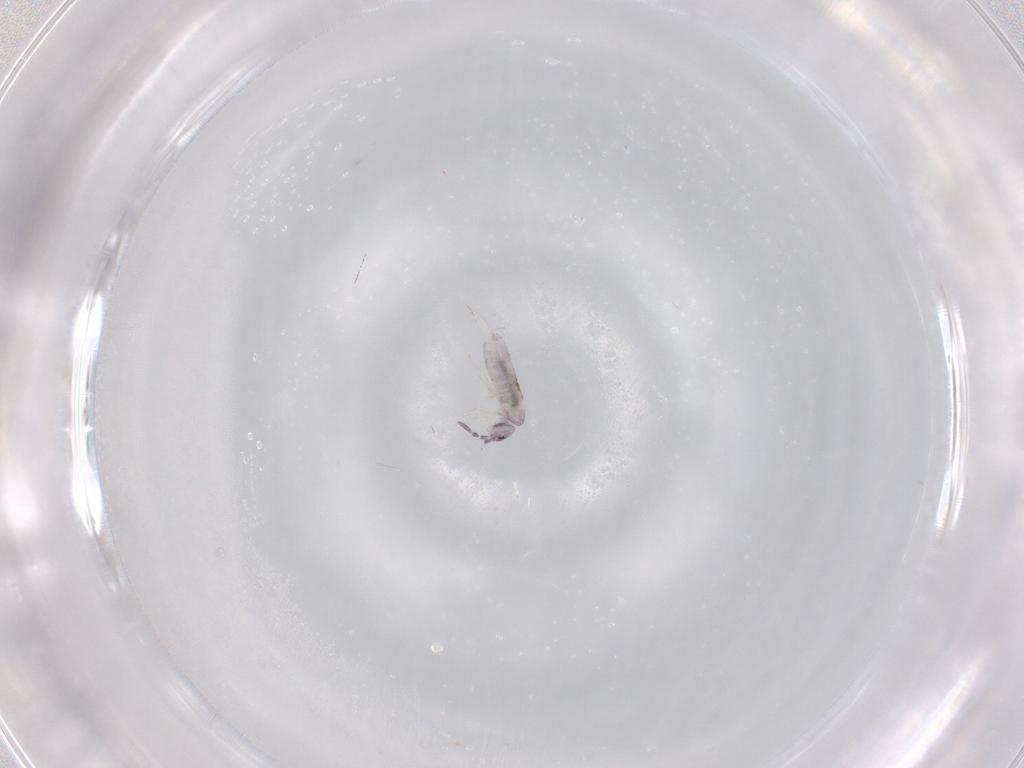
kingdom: Animalia
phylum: Arthropoda
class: Collembola
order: Entomobryomorpha
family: Entomobryidae
